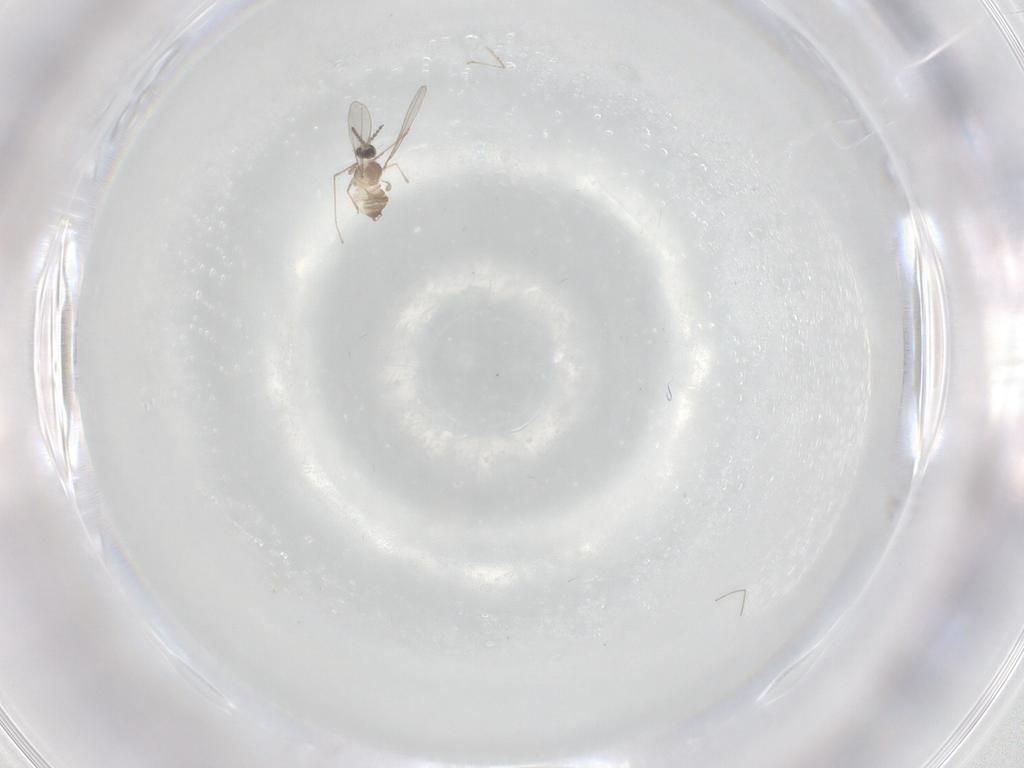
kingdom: Animalia
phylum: Arthropoda
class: Insecta
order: Diptera
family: Cecidomyiidae
